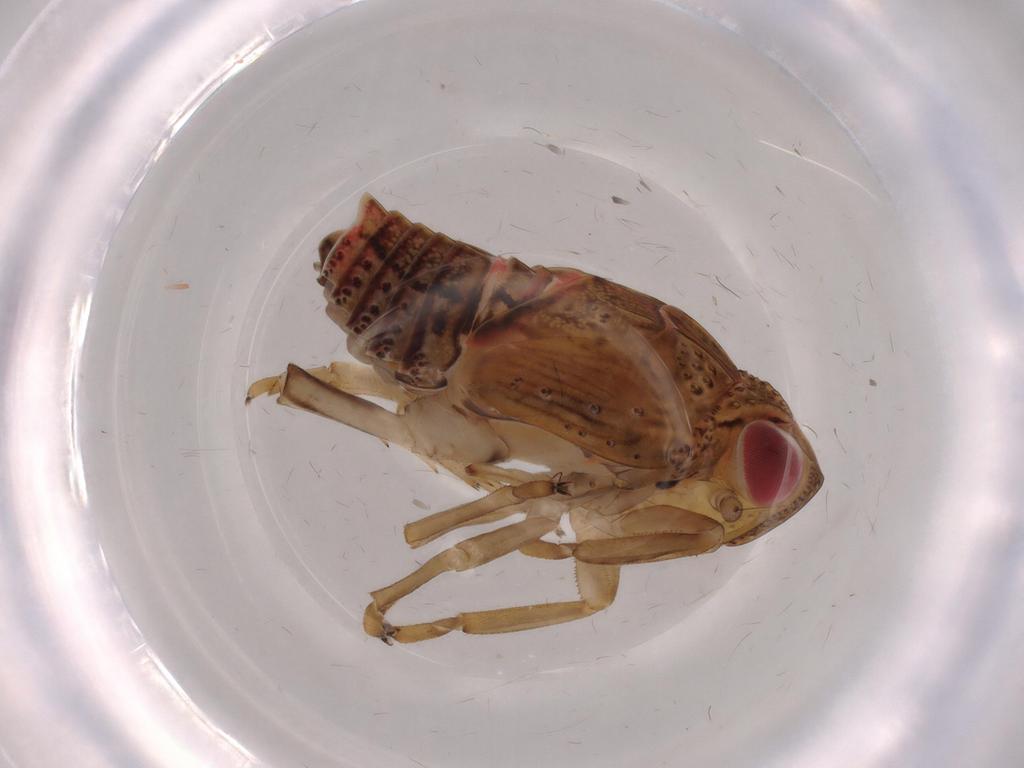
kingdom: Animalia
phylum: Arthropoda
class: Insecta
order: Hemiptera
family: Issidae
